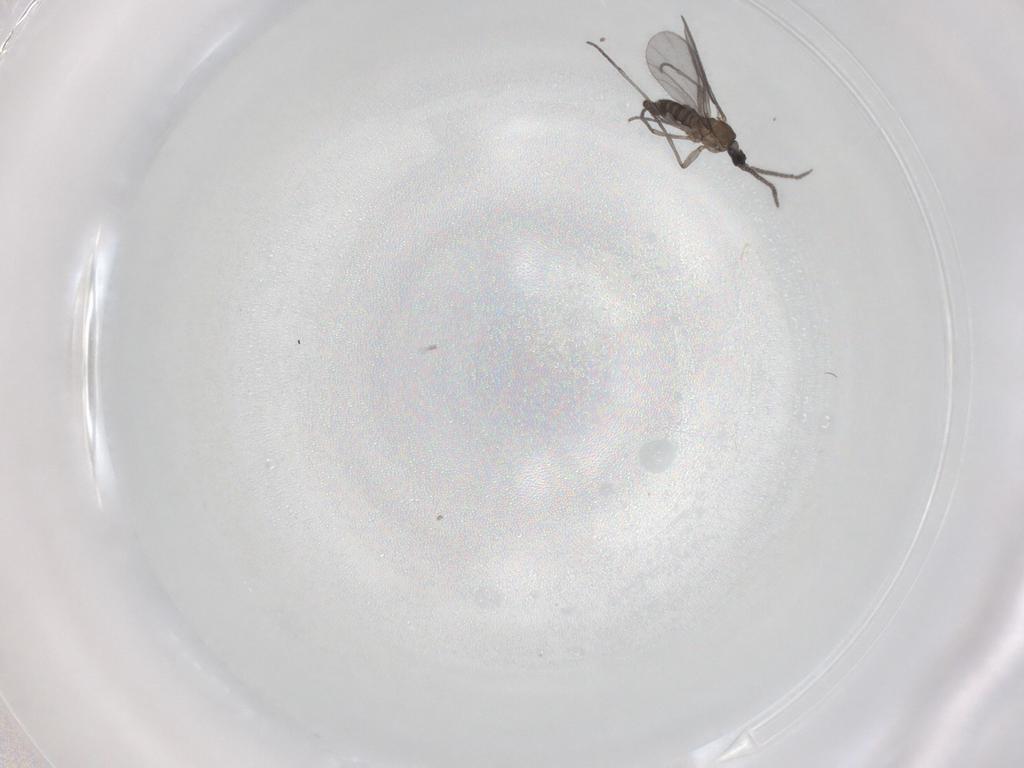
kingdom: Animalia
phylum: Arthropoda
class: Insecta
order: Diptera
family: Sciaridae
